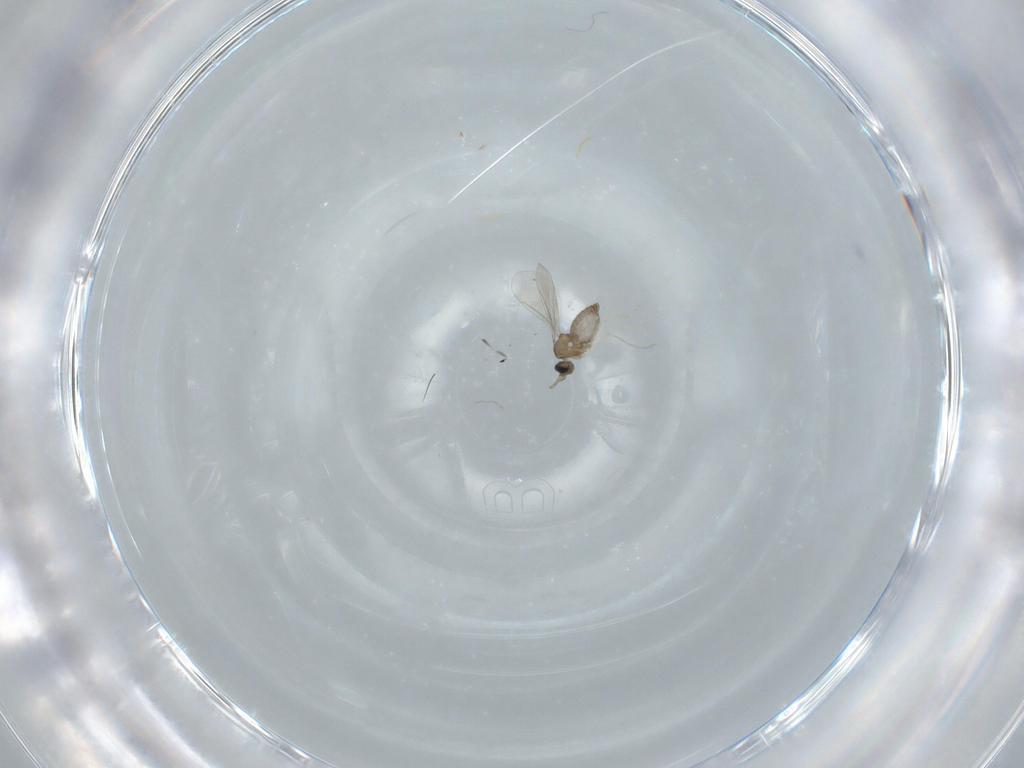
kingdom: Animalia
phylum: Arthropoda
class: Insecta
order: Diptera
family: Cecidomyiidae
